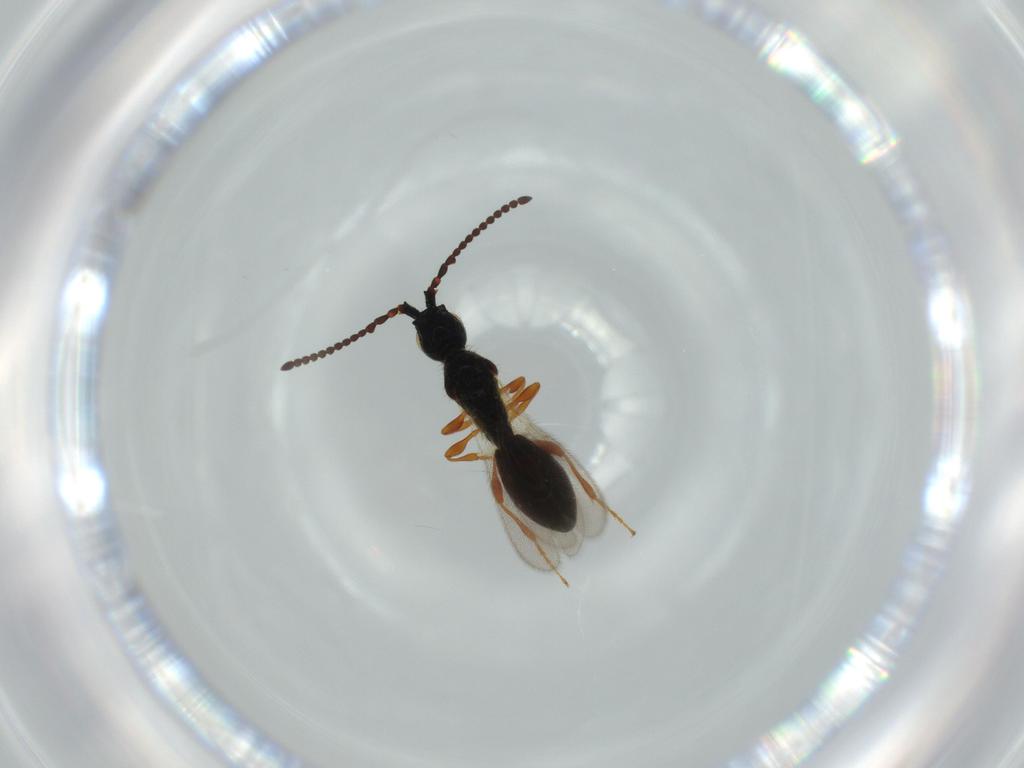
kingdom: Animalia
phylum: Arthropoda
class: Insecta
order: Hymenoptera
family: Diapriidae
